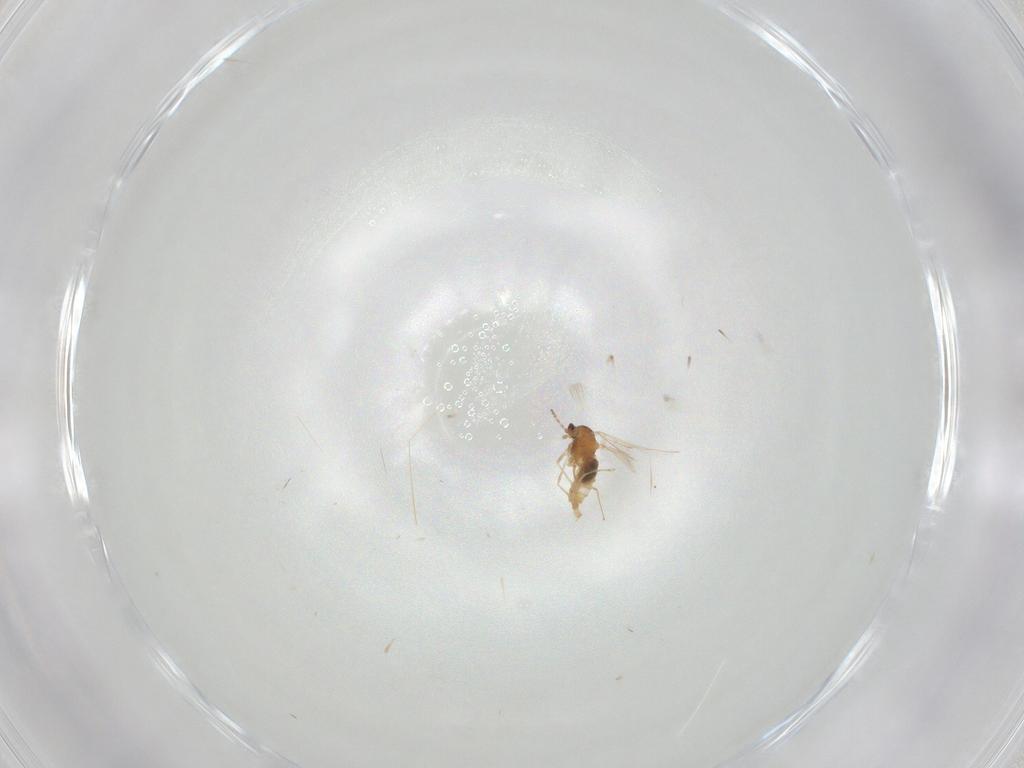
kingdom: Animalia
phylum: Arthropoda
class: Insecta
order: Diptera
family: Cecidomyiidae
